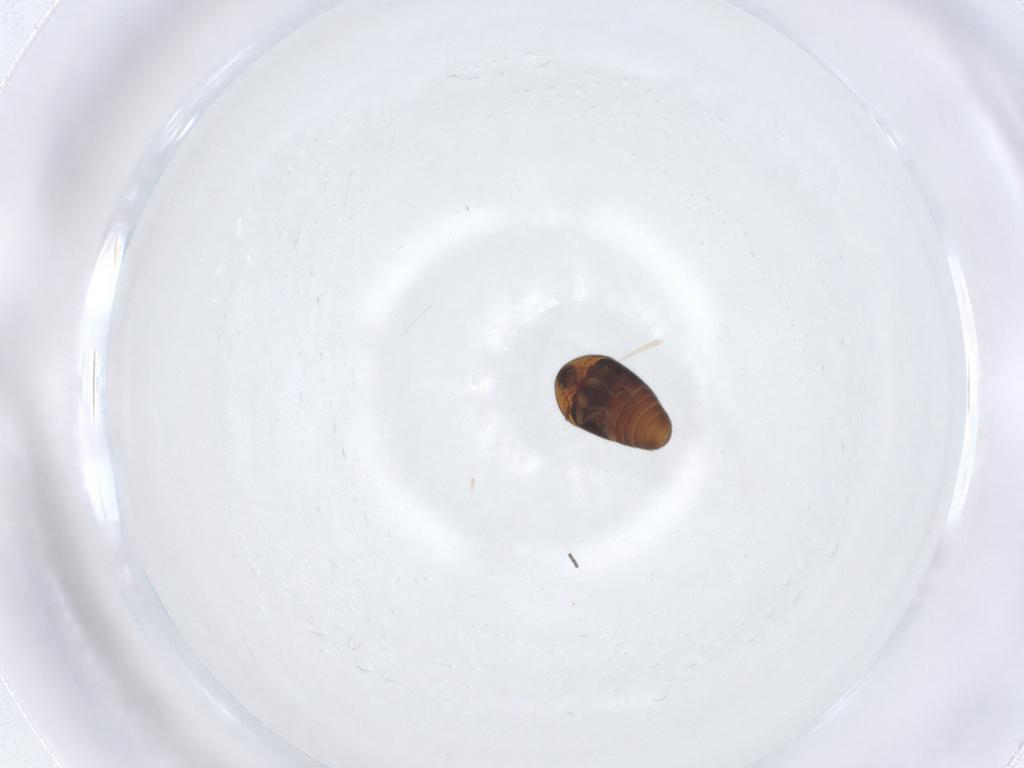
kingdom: Animalia
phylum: Arthropoda
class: Insecta
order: Coleoptera
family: Corylophidae
